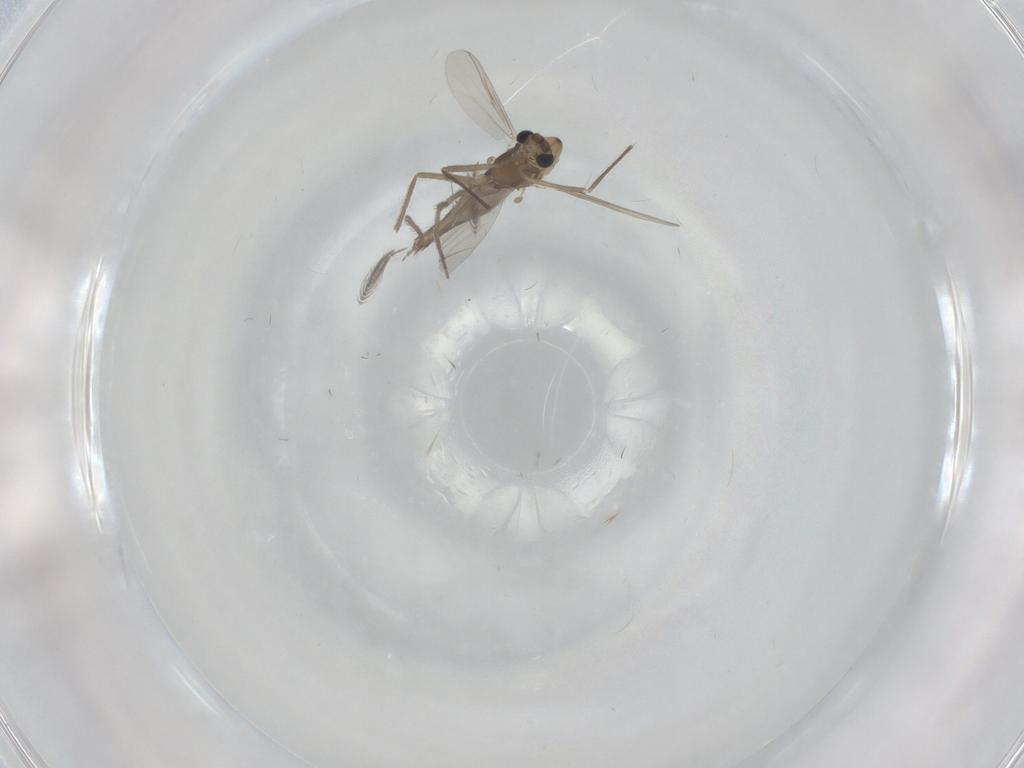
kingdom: Animalia
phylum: Arthropoda
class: Insecta
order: Diptera
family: Chironomidae
